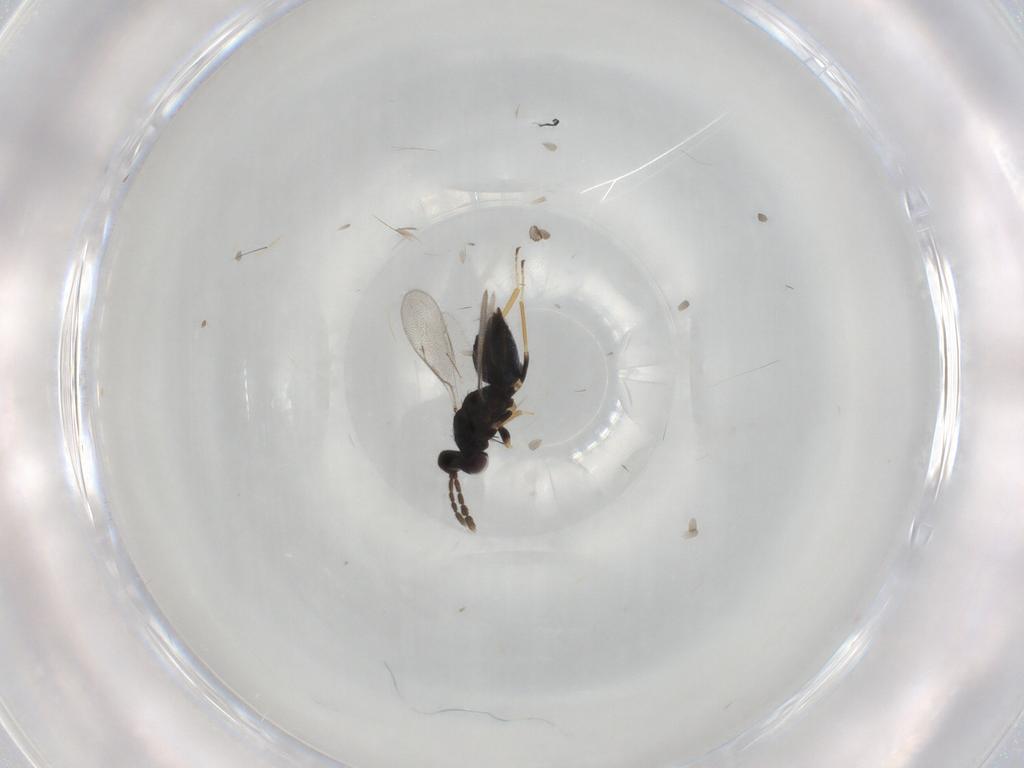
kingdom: Animalia
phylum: Arthropoda
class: Insecta
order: Hymenoptera
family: Eulophidae
